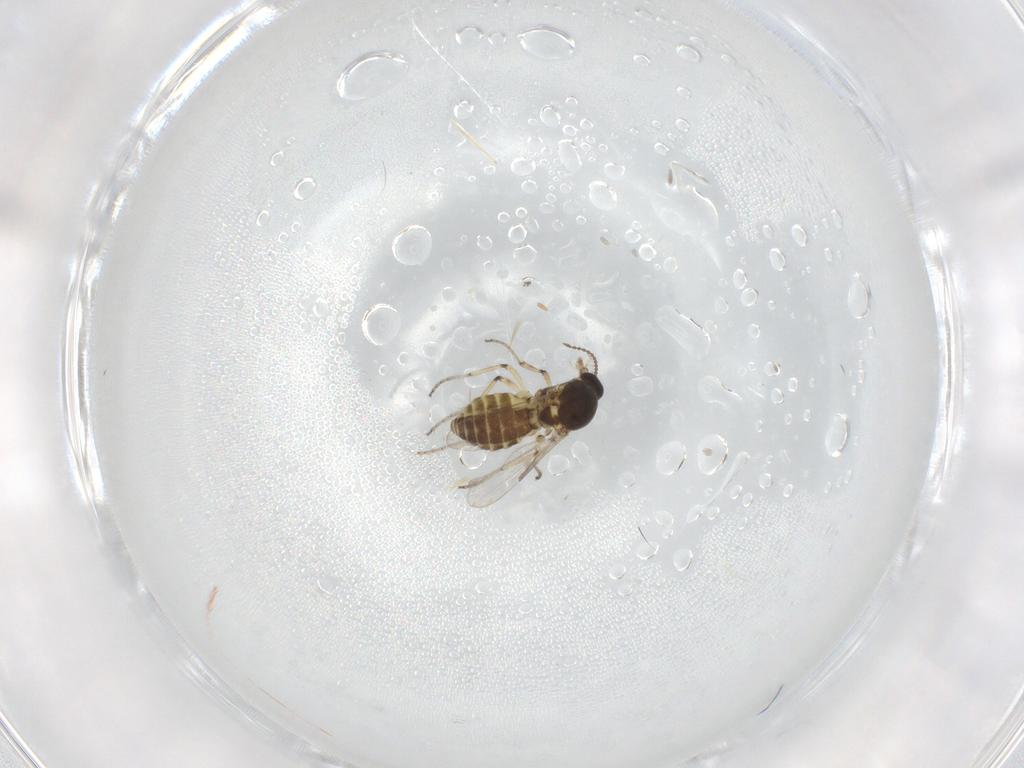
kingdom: Animalia
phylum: Arthropoda
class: Insecta
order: Diptera
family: Ceratopogonidae
